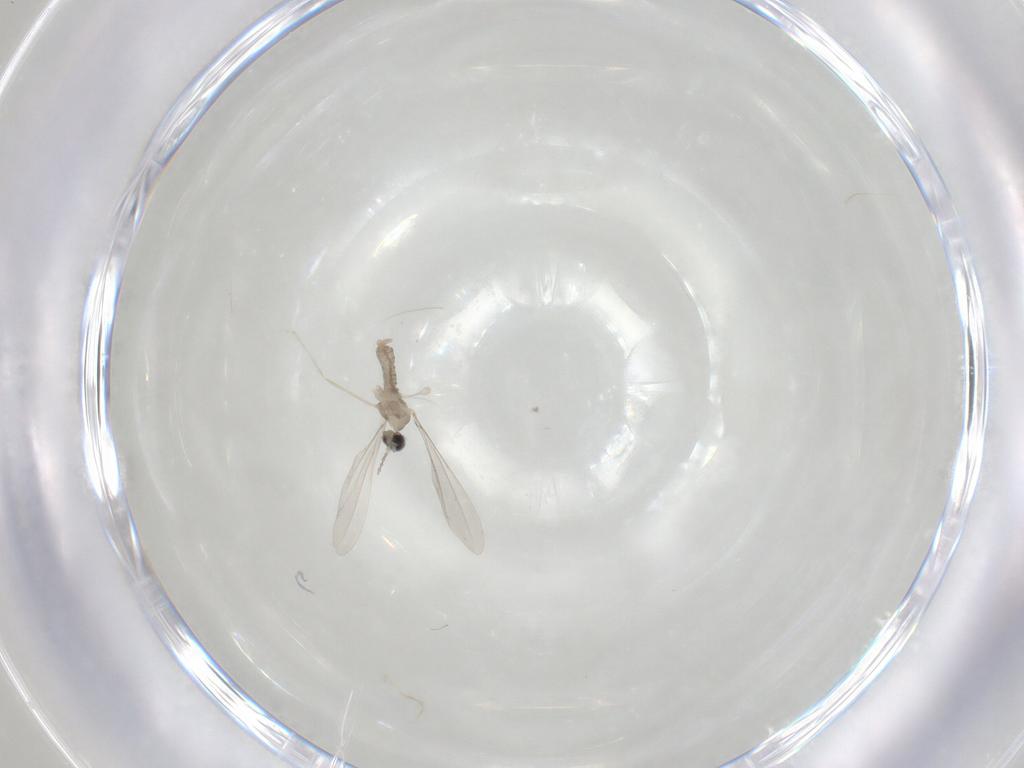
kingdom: Animalia
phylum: Arthropoda
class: Insecta
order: Diptera
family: Cecidomyiidae
